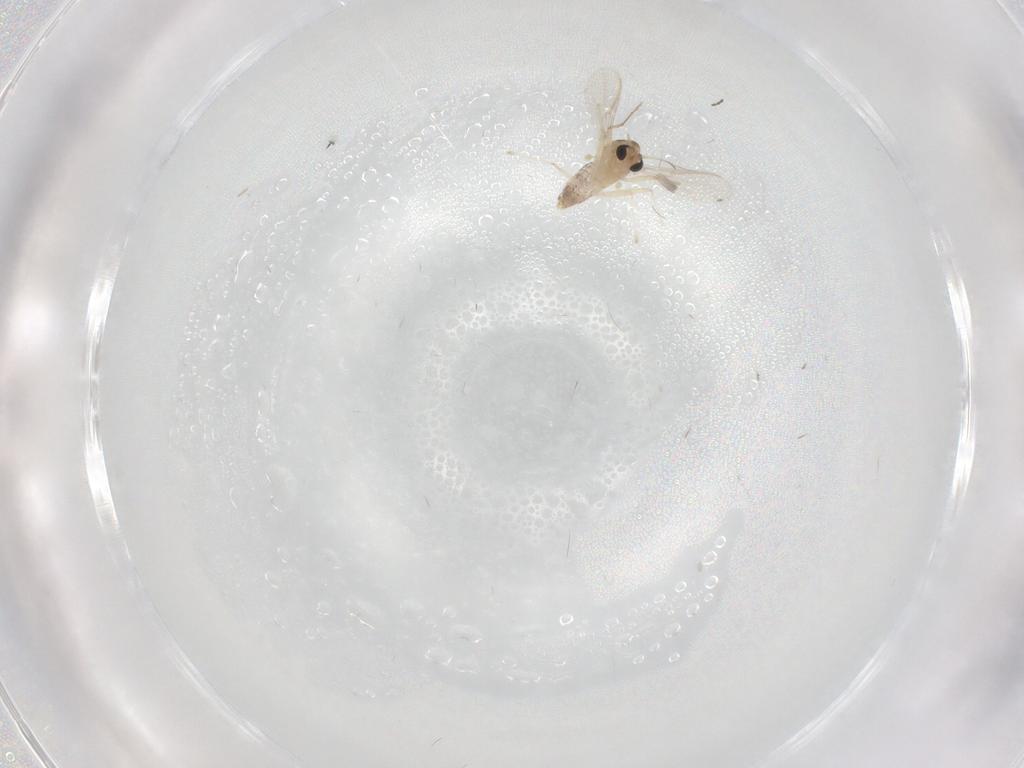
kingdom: Animalia
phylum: Arthropoda
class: Insecta
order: Diptera
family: Chironomidae
